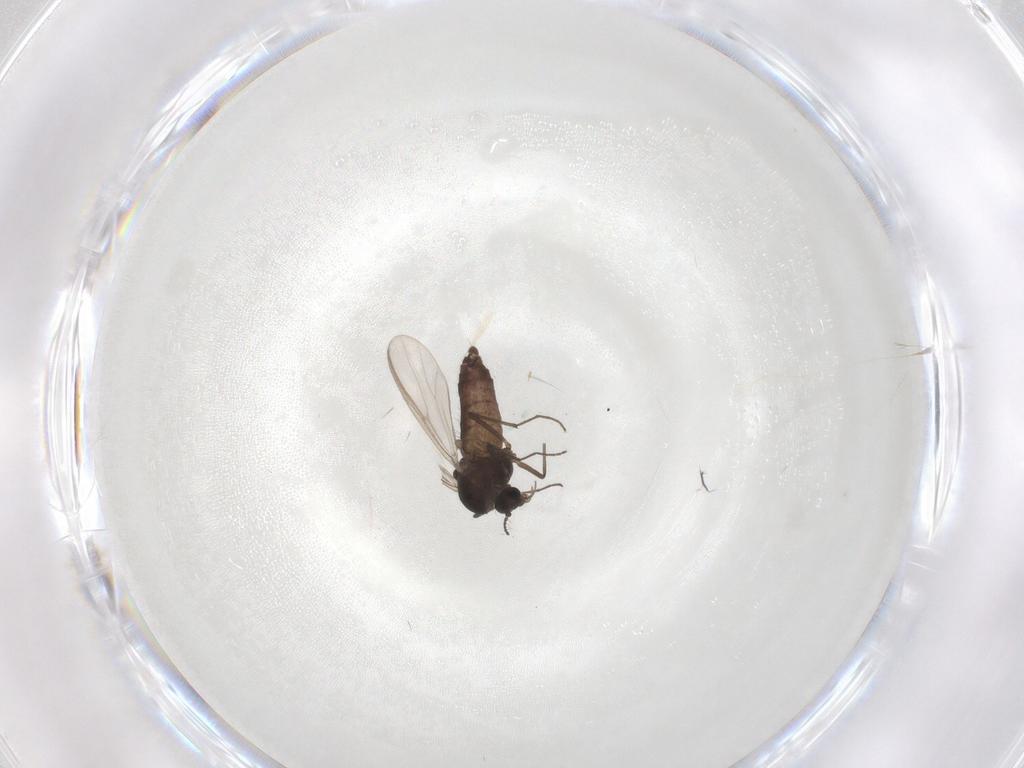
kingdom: Animalia
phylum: Arthropoda
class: Insecta
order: Diptera
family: Chironomidae
